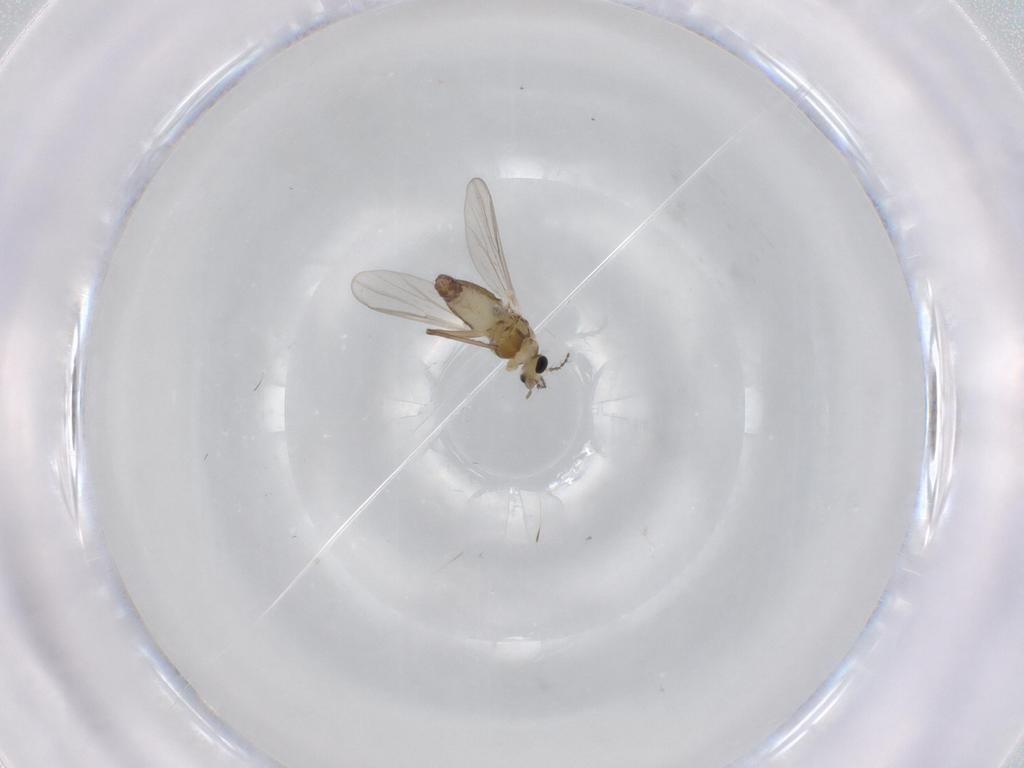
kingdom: Animalia
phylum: Arthropoda
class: Insecta
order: Diptera
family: Chironomidae
